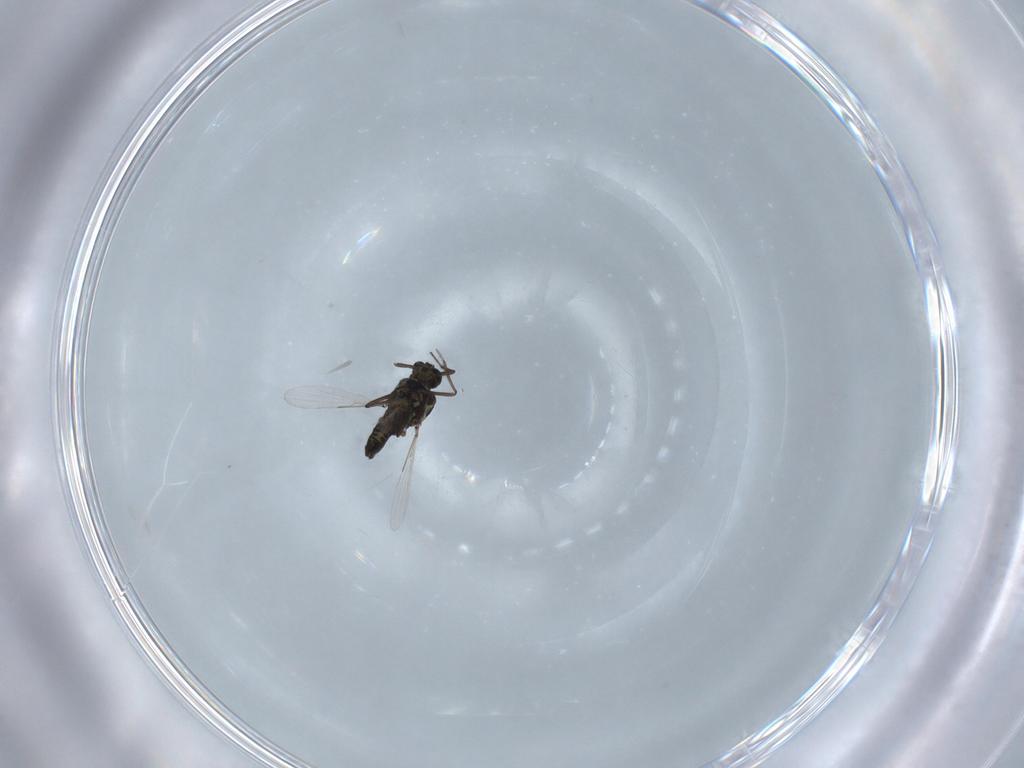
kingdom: Animalia
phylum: Arthropoda
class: Insecta
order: Diptera
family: Ceratopogonidae
